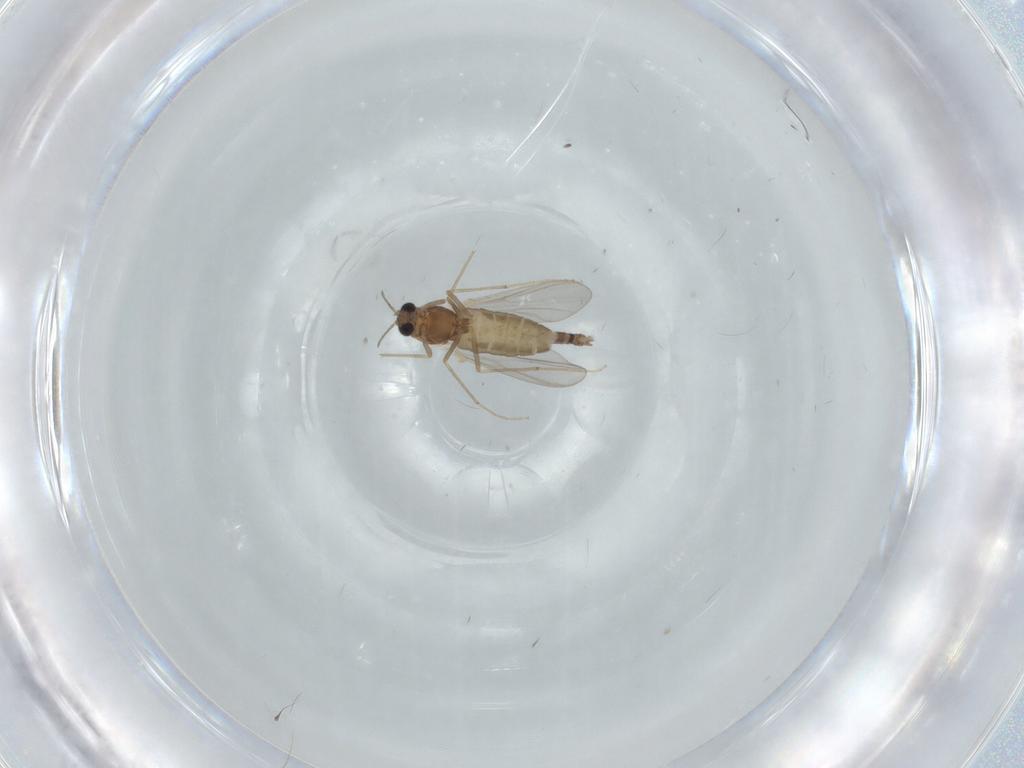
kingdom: Animalia
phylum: Arthropoda
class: Insecta
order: Diptera
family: Chironomidae
